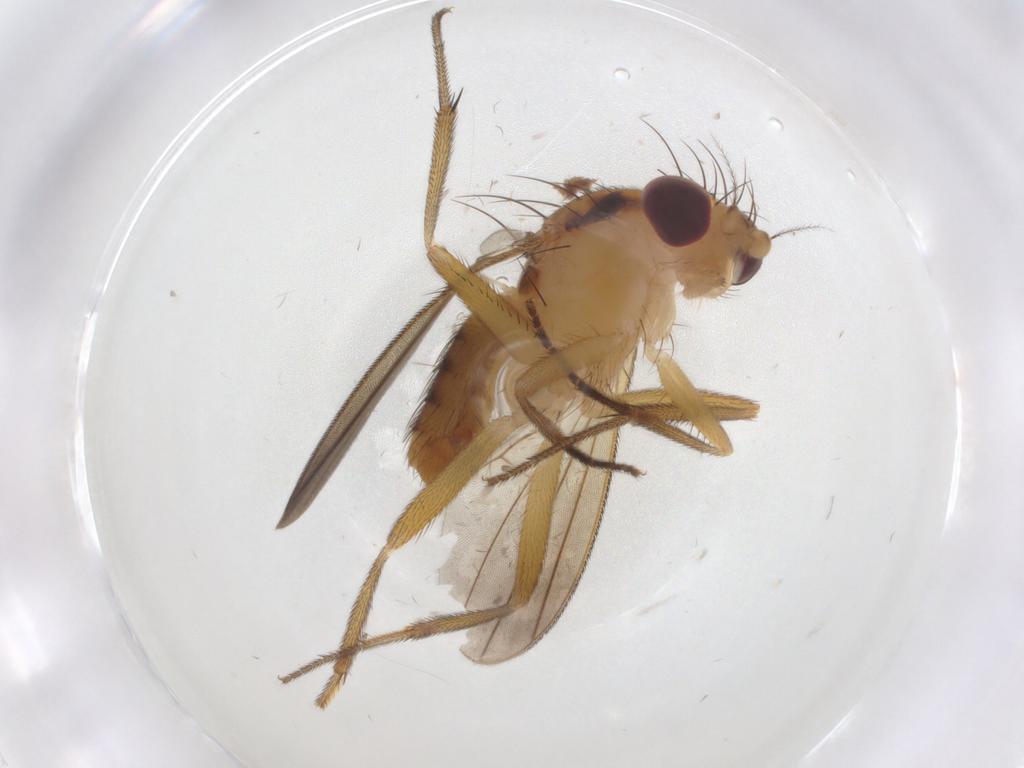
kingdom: Animalia
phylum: Arthropoda
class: Insecta
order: Diptera
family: Clusiidae
